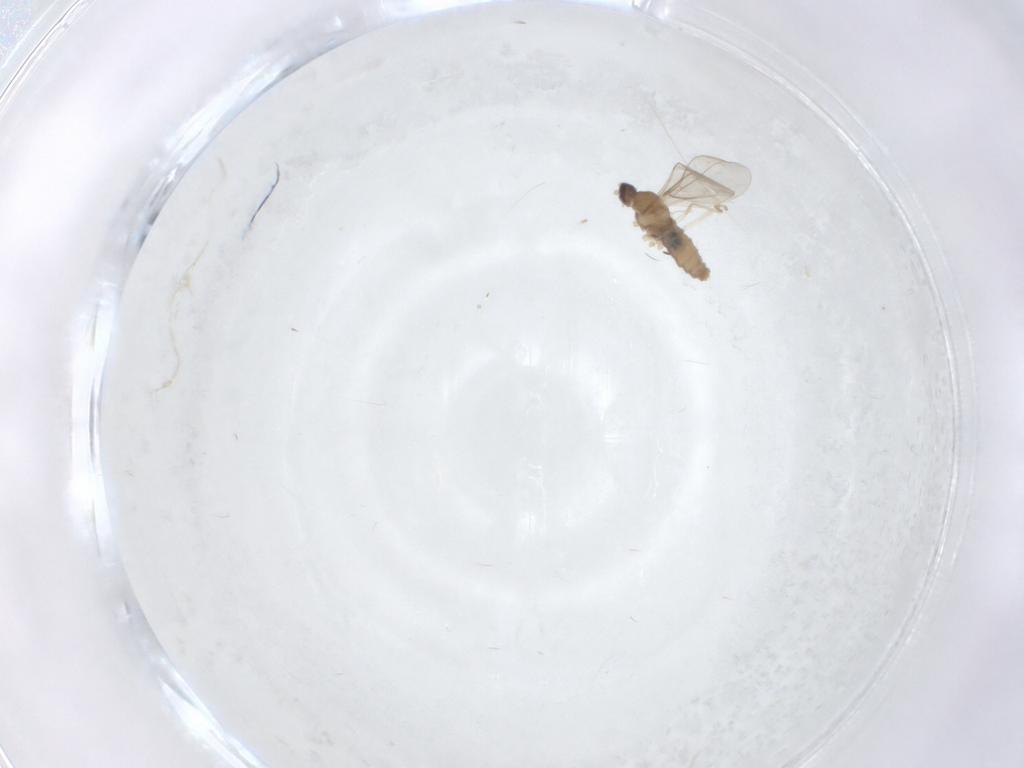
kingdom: Animalia
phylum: Arthropoda
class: Insecta
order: Diptera
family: Cecidomyiidae
